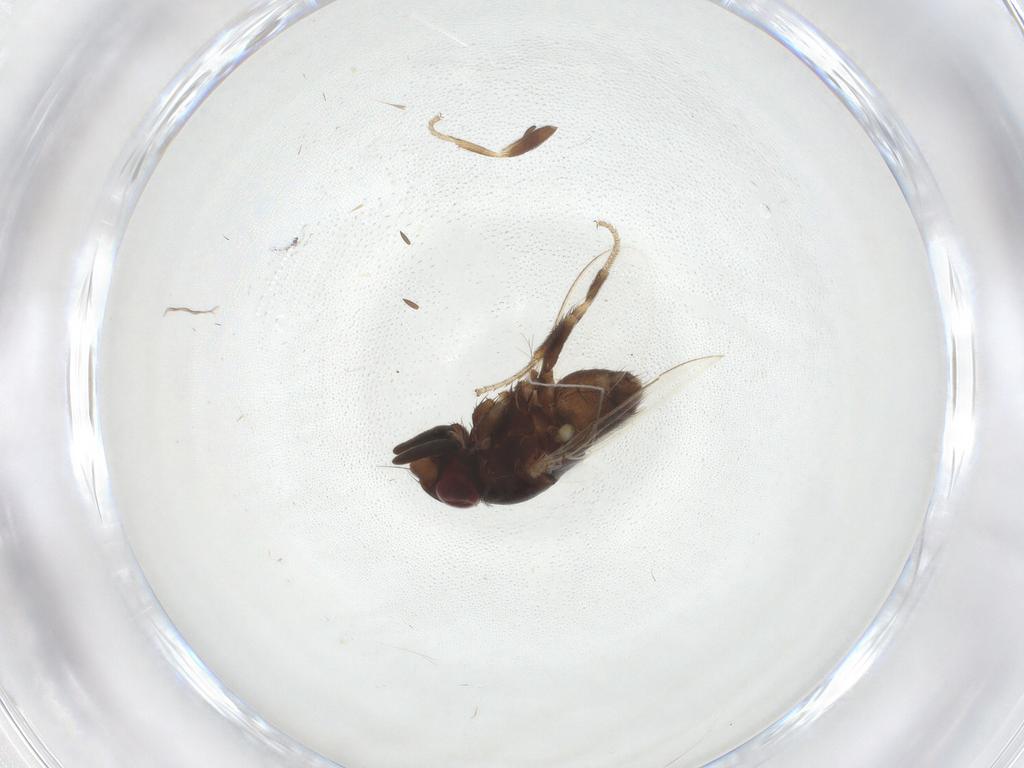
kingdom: Animalia
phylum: Arthropoda
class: Insecta
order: Diptera
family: Milichiidae
